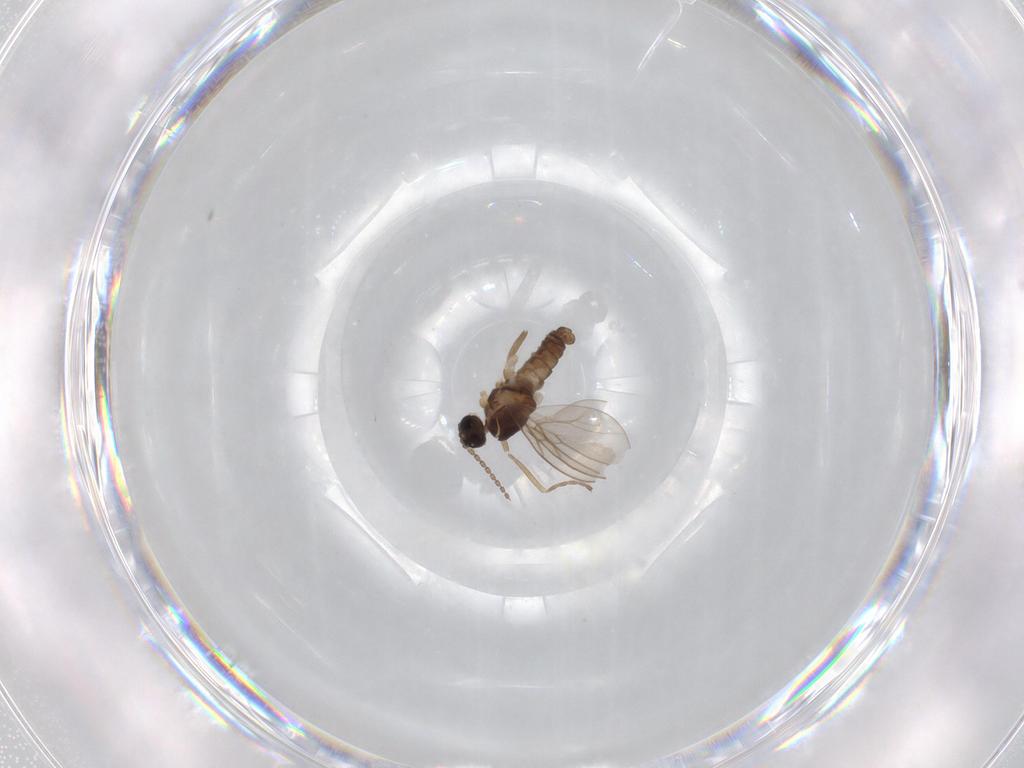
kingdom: Animalia
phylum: Arthropoda
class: Insecta
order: Diptera
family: Cecidomyiidae
